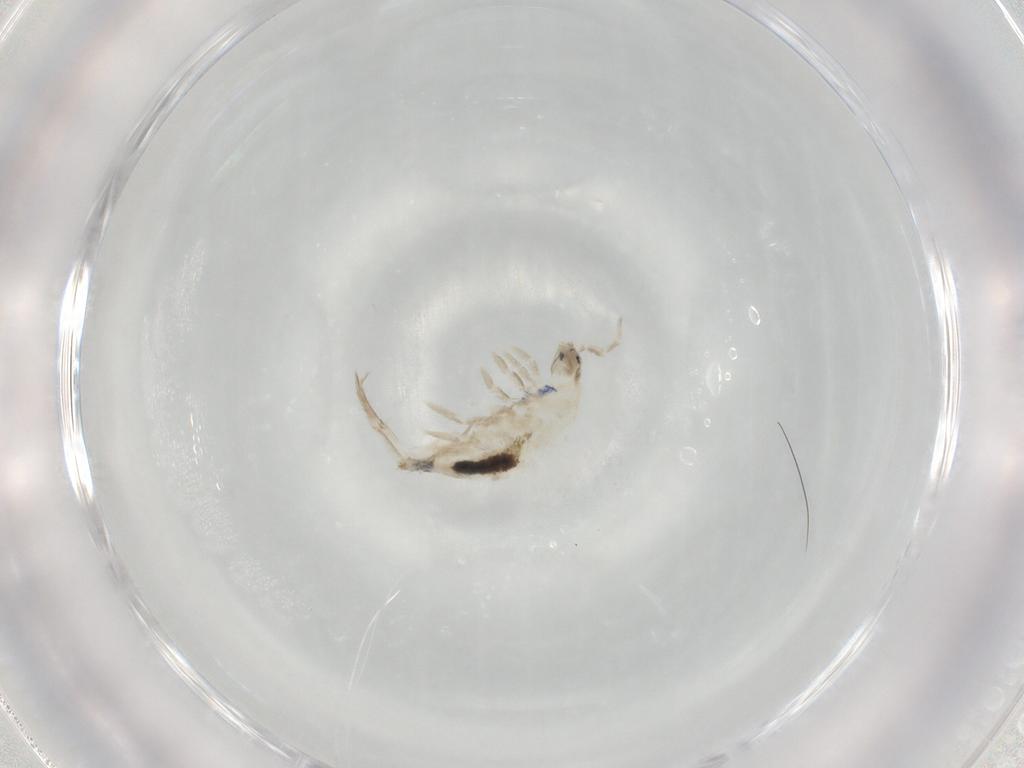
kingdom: Animalia
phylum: Arthropoda
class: Collembola
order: Entomobryomorpha
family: Entomobryidae
